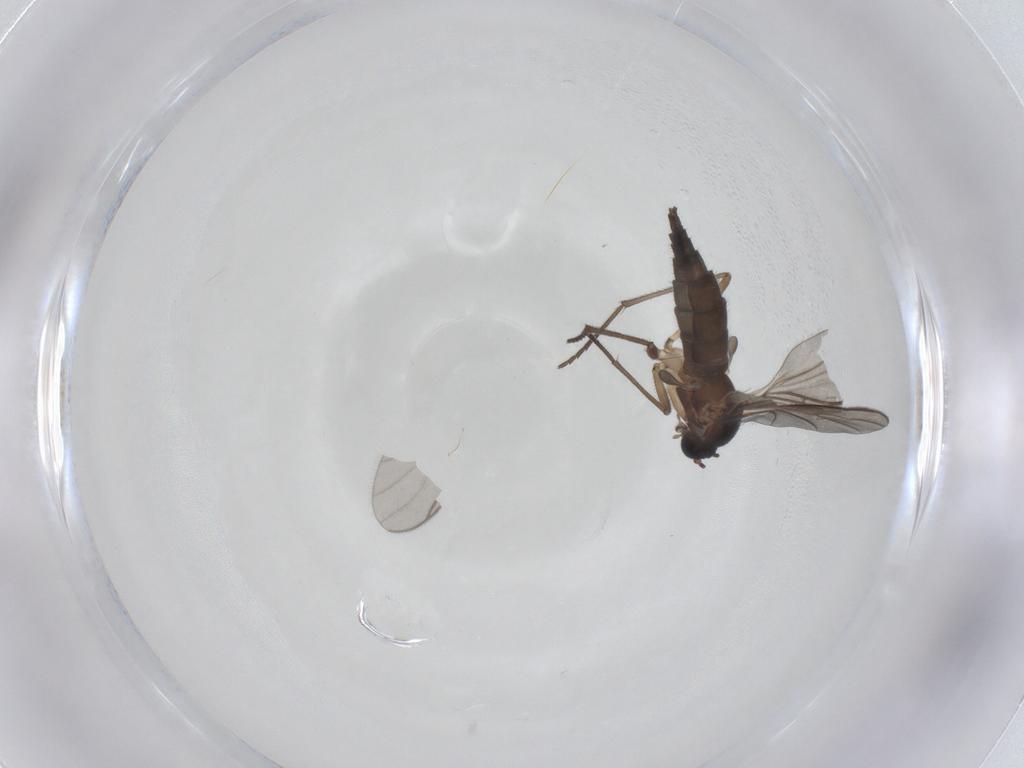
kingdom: Animalia
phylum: Arthropoda
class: Insecta
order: Diptera
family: Sciaridae
